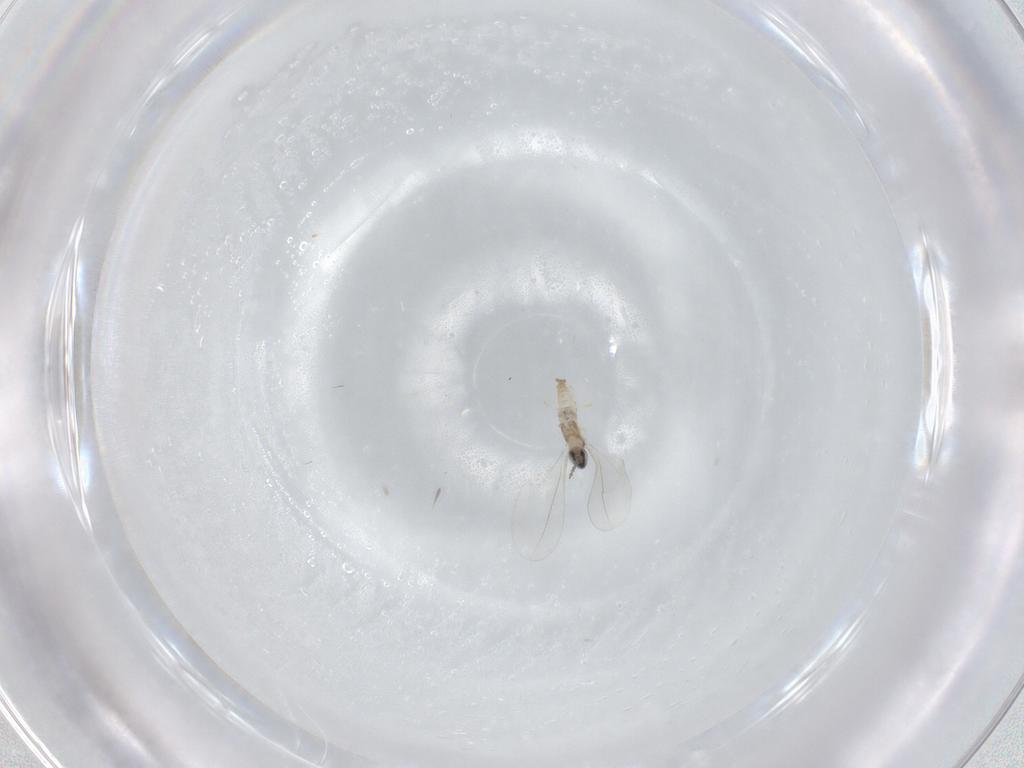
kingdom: Animalia
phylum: Arthropoda
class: Insecta
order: Diptera
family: Cecidomyiidae
